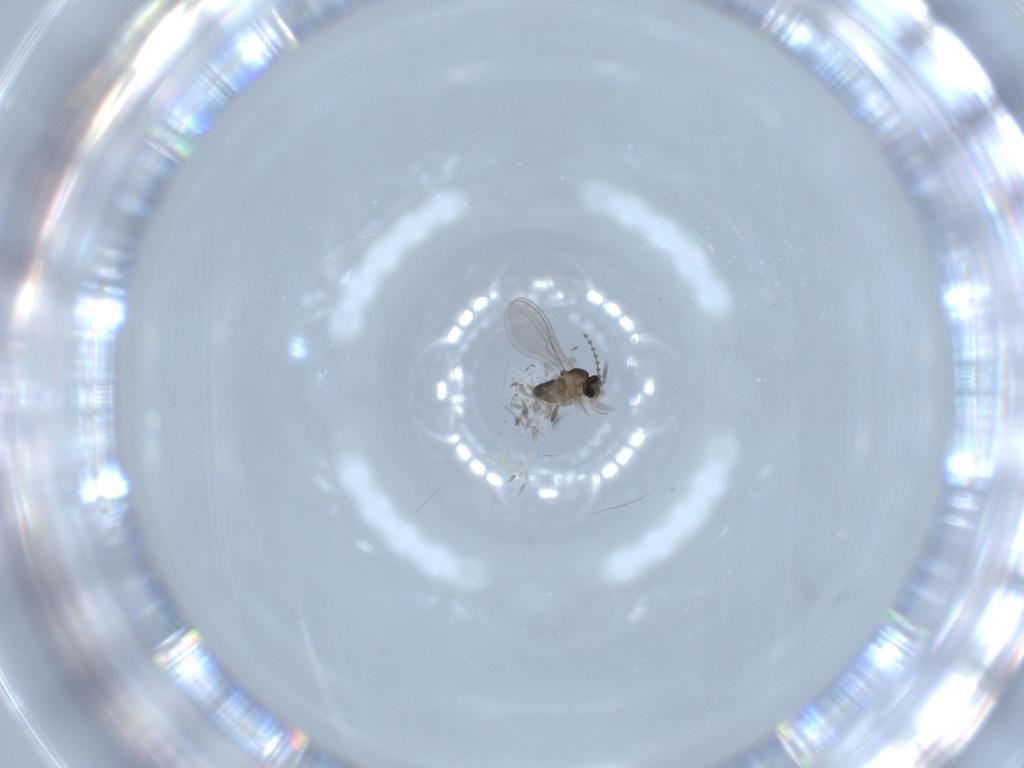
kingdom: Animalia
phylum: Arthropoda
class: Insecta
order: Diptera
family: Cecidomyiidae
